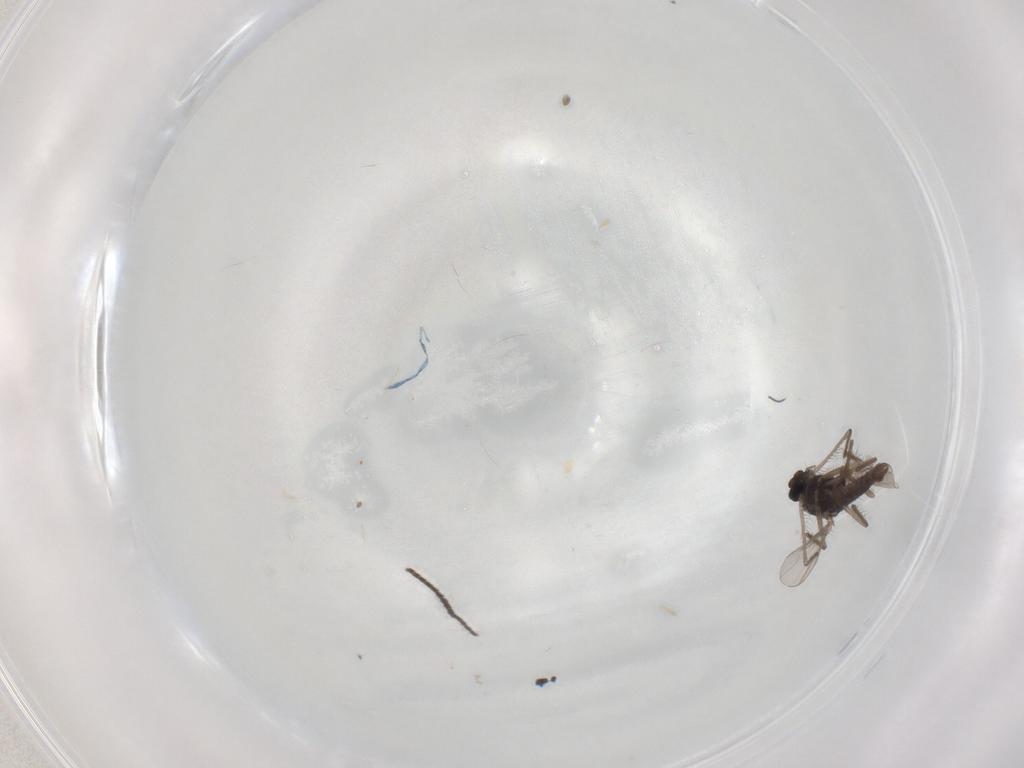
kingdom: Animalia
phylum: Arthropoda
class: Insecta
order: Diptera
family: Chironomidae
